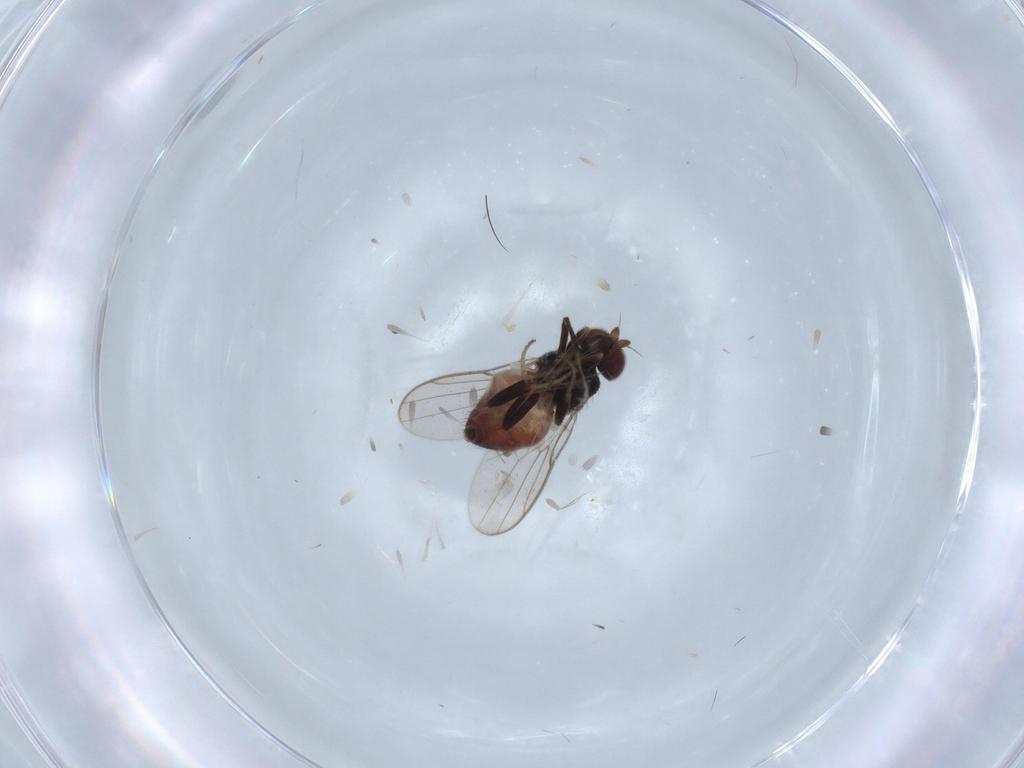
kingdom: Animalia
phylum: Arthropoda
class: Insecta
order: Diptera
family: Chloropidae
